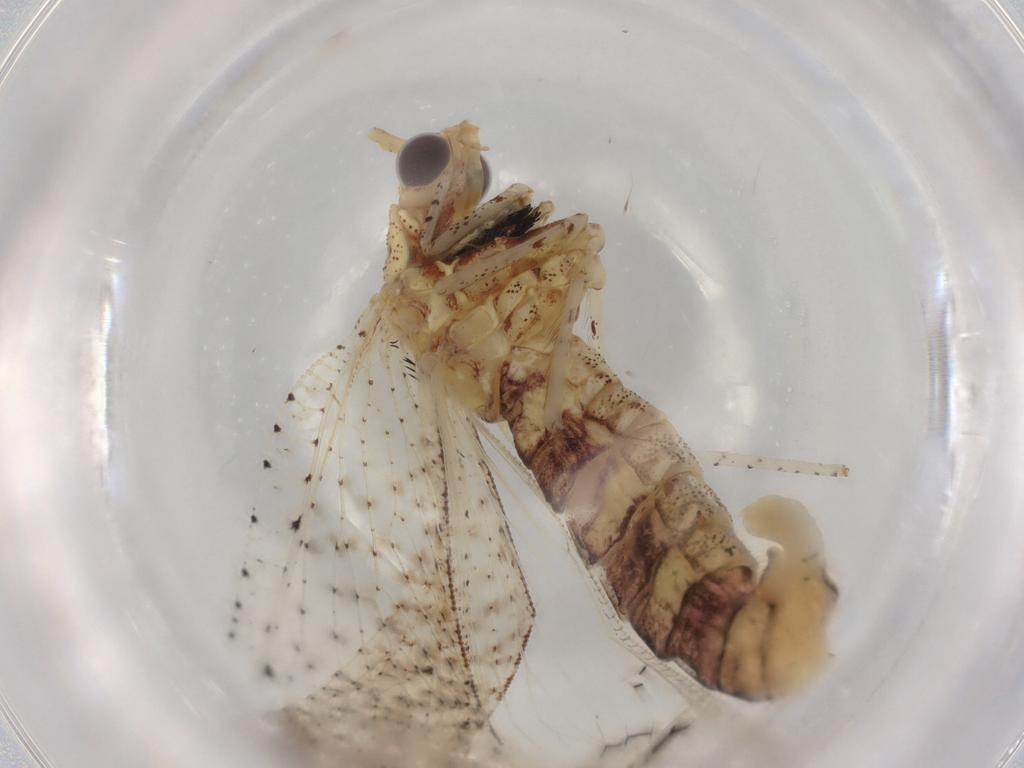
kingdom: Animalia
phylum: Arthropoda
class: Insecta
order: Neuroptera
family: Berothidae
